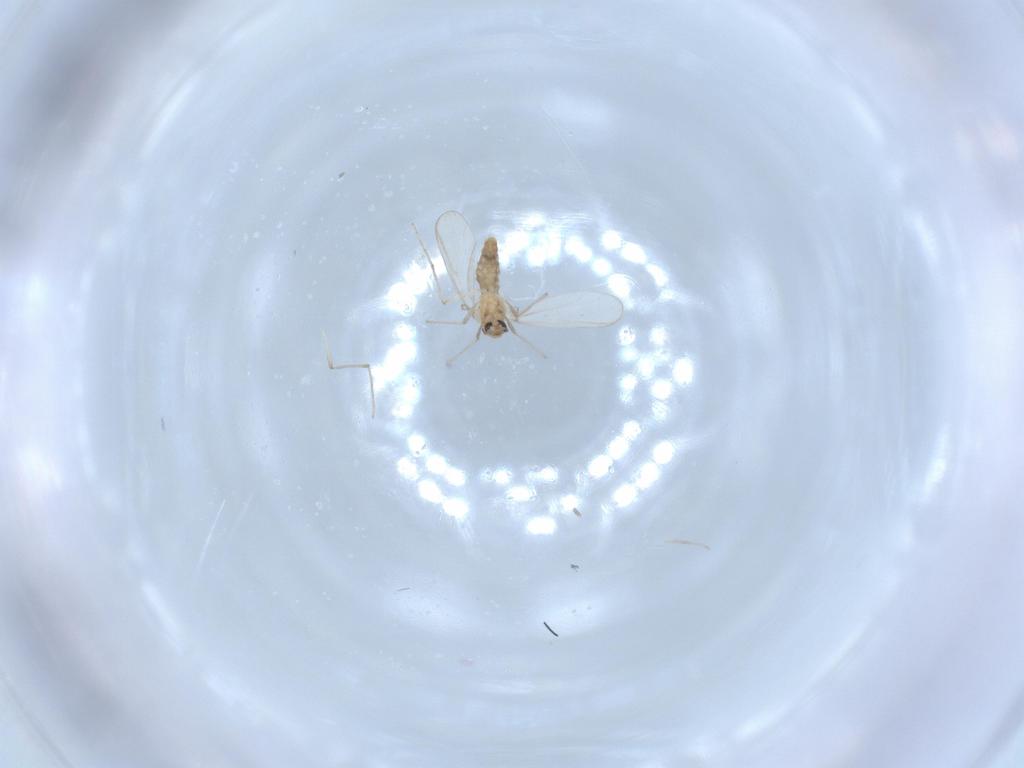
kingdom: Animalia
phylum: Arthropoda
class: Insecta
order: Diptera
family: Chironomidae
